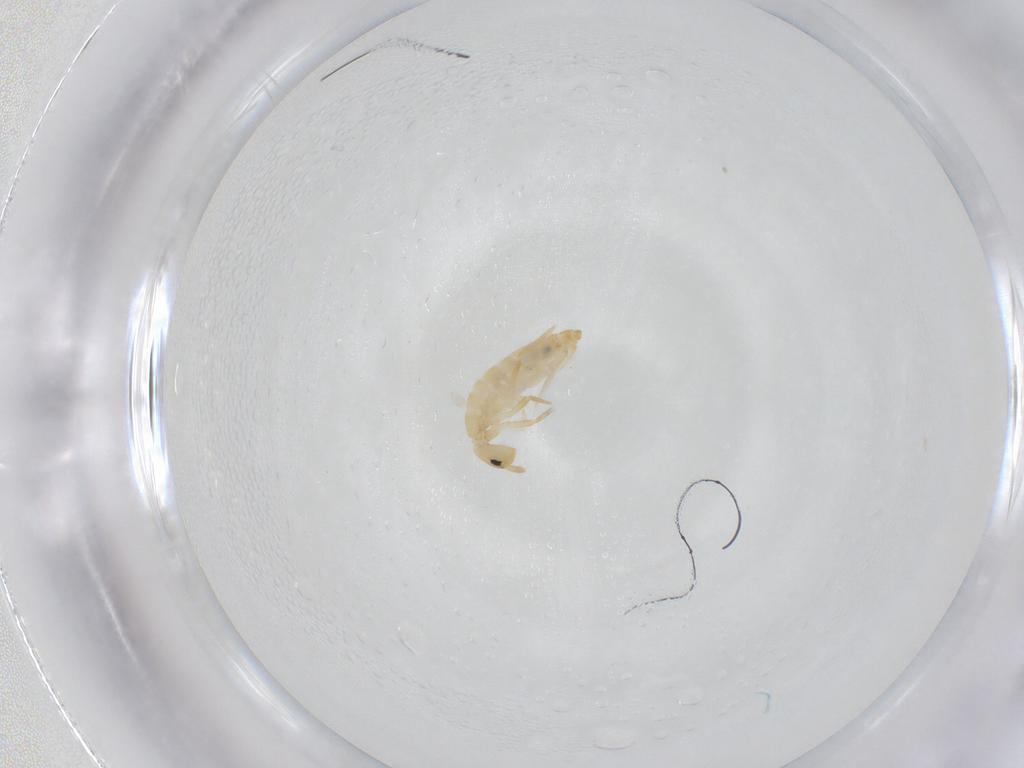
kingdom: Animalia
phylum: Arthropoda
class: Collembola
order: Entomobryomorpha
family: Entomobryidae
